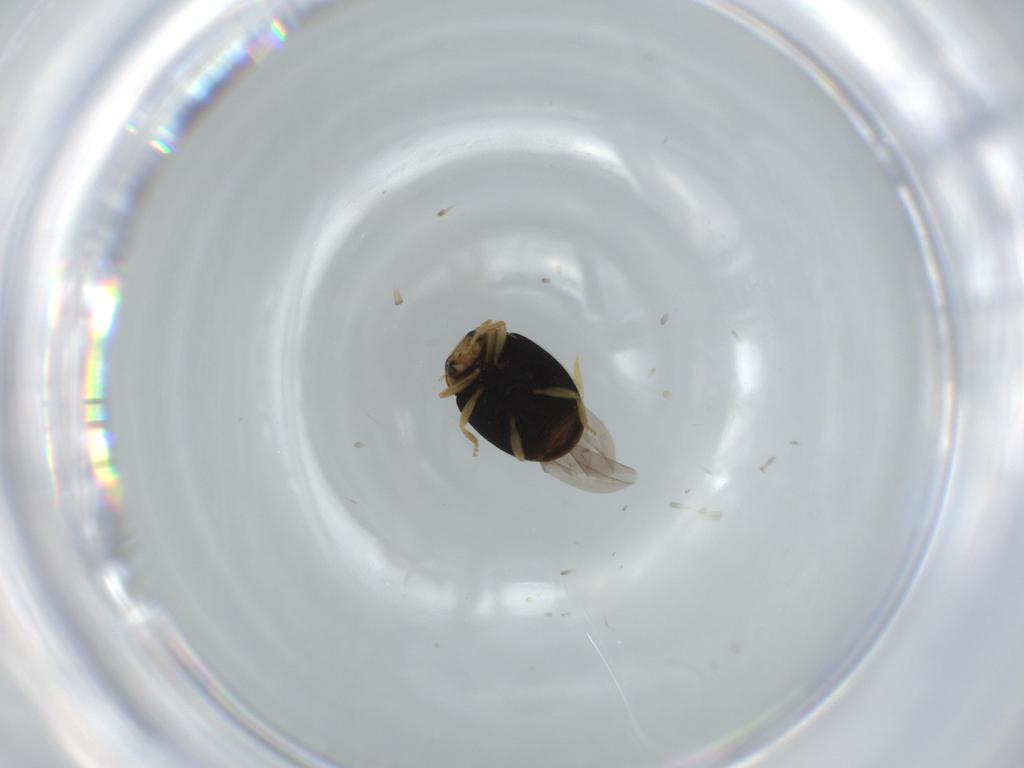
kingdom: Animalia
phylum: Arthropoda
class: Insecta
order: Coleoptera
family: Coccinellidae
